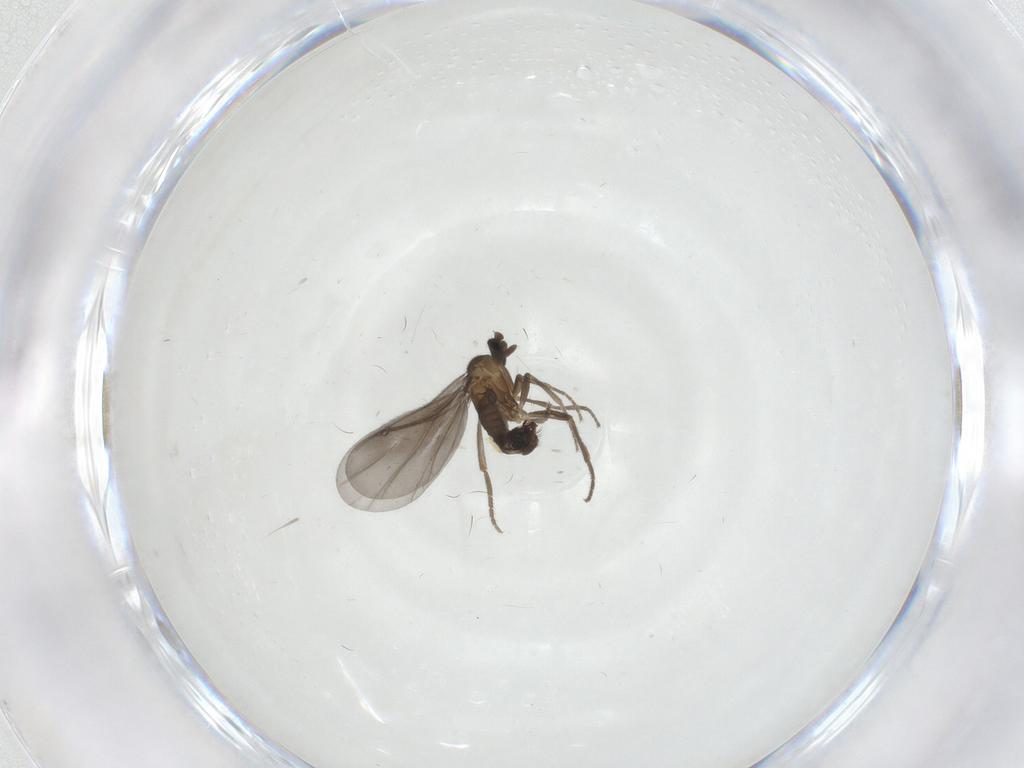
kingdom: Animalia
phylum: Arthropoda
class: Insecta
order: Diptera
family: Phoridae
